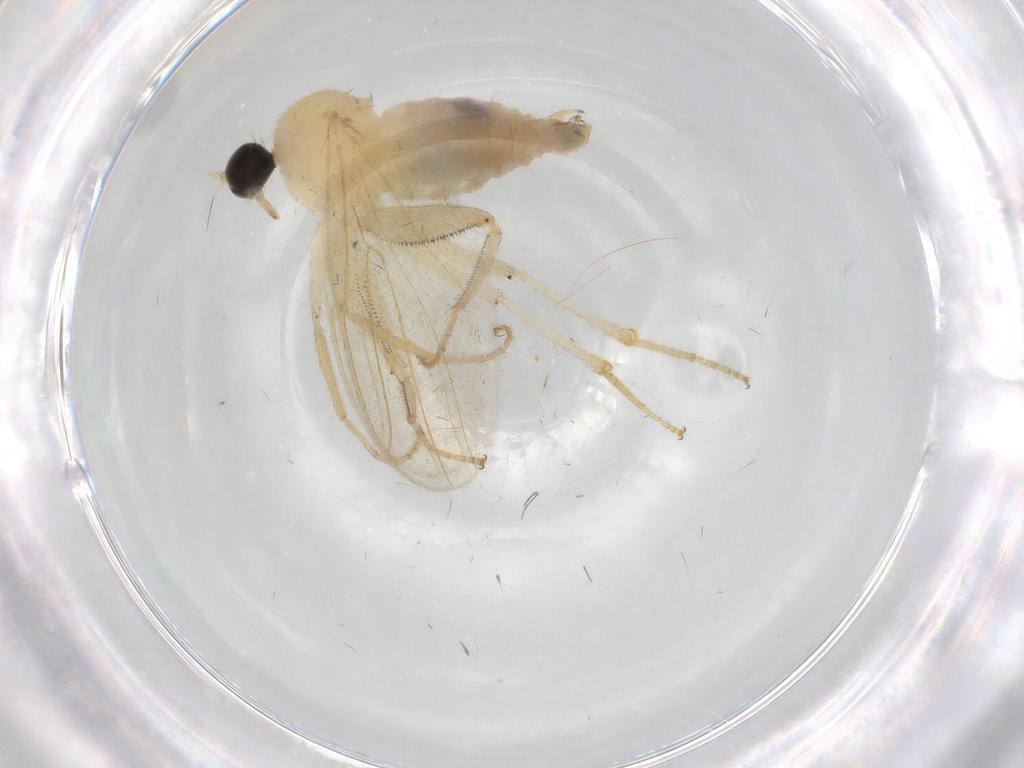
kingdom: Animalia
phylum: Arthropoda
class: Insecta
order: Diptera
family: Hybotidae
